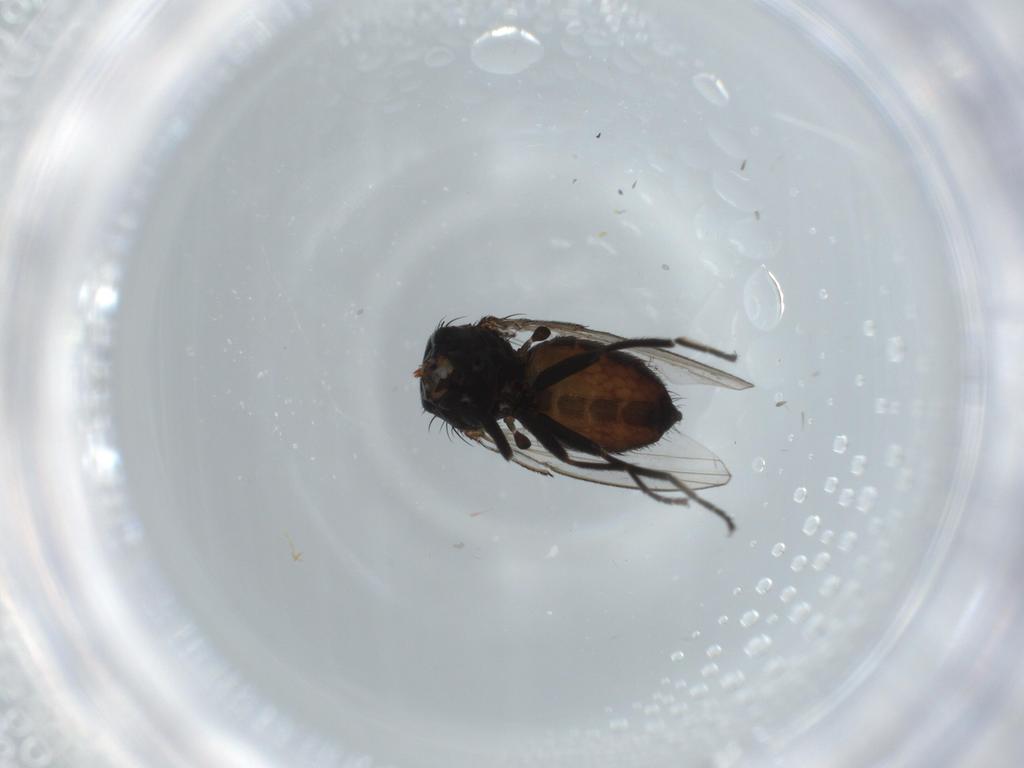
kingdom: Animalia
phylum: Arthropoda
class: Insecta
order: Diptera
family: Milichiidae
